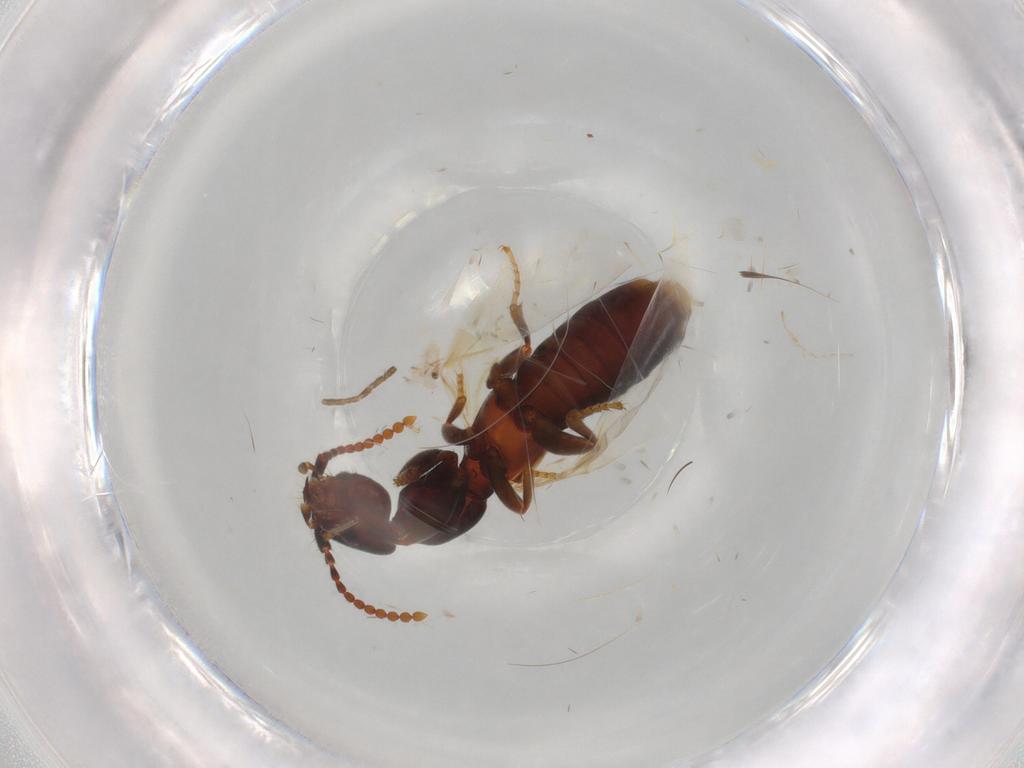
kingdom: Animalia
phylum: Arthropoda
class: Insecta
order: Coleoptera
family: Staphylinidae
